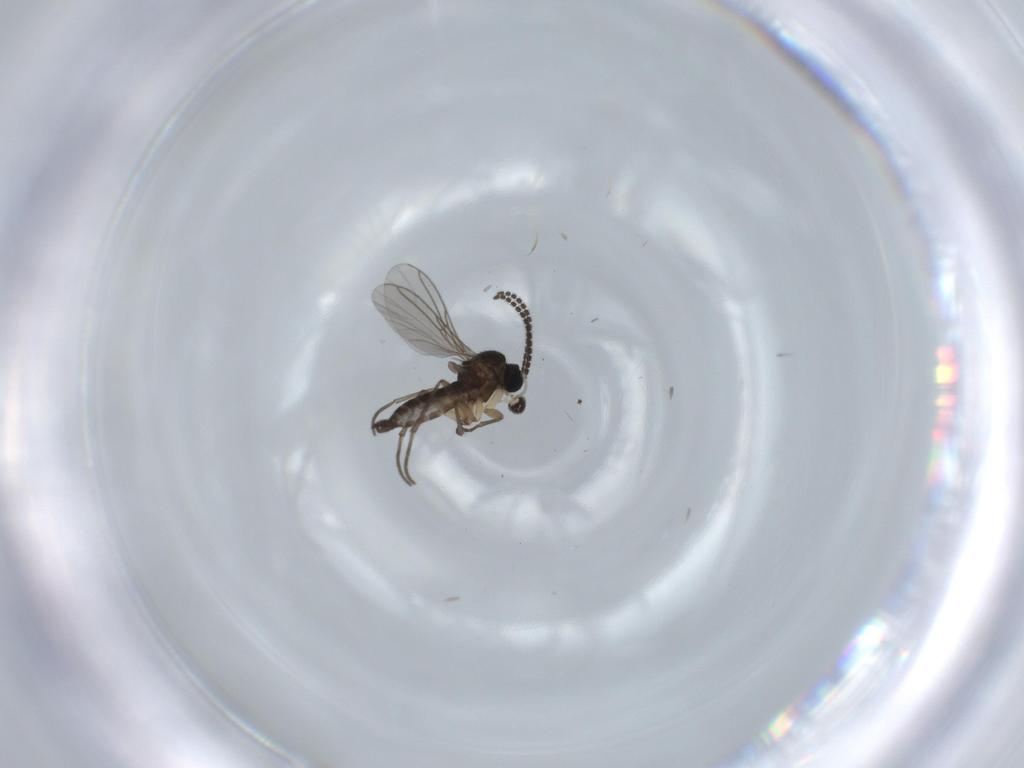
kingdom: Animalia
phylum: Arthropoda
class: Insecta
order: Diptera
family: Sciaridae
